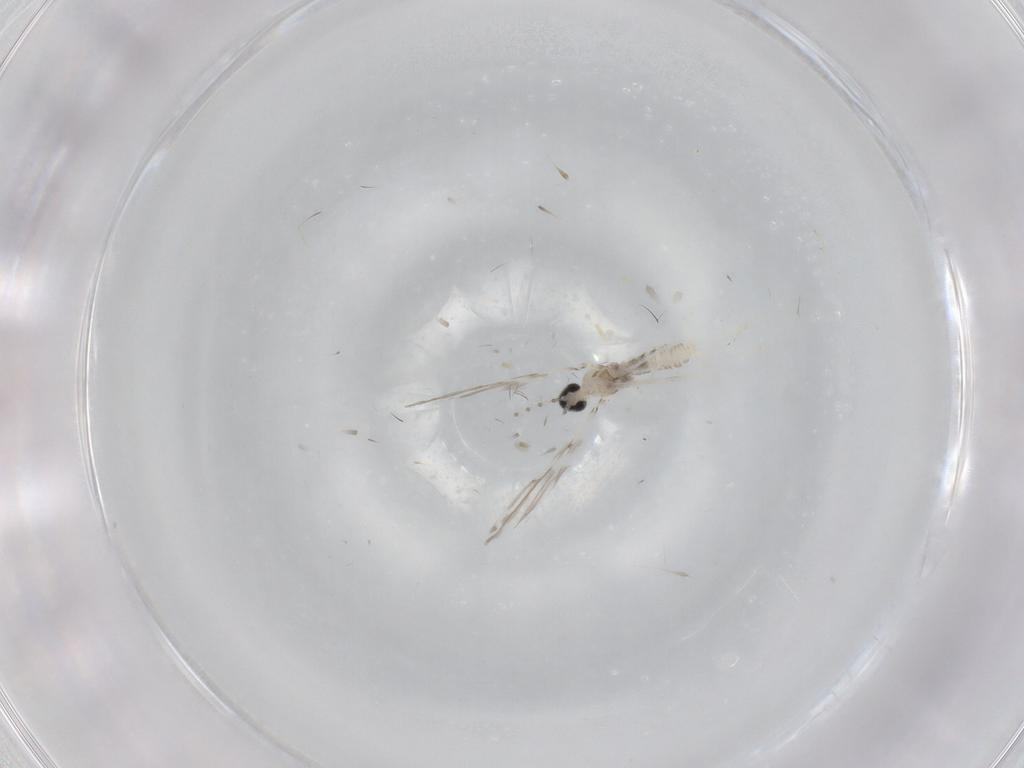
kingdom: Animalia
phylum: Arthropoda
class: Insecta
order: Diptera
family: Cecidomyiidae
